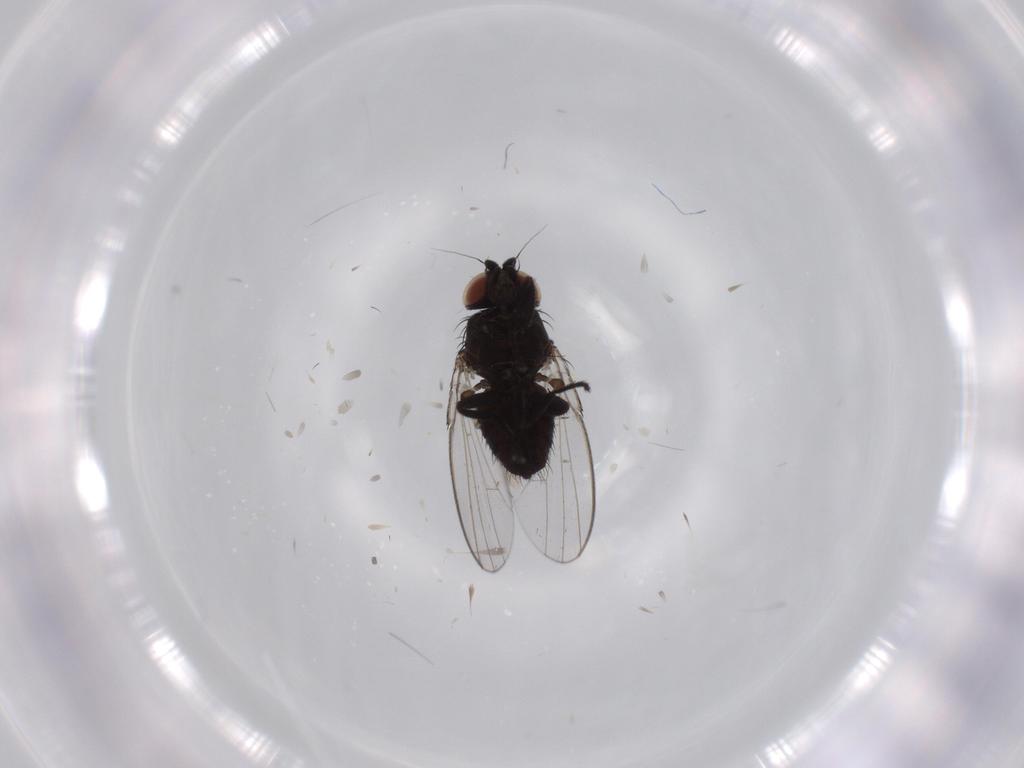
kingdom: Animalia
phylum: Arthropoda
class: Insecta
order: Diptera
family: Milichiidae
